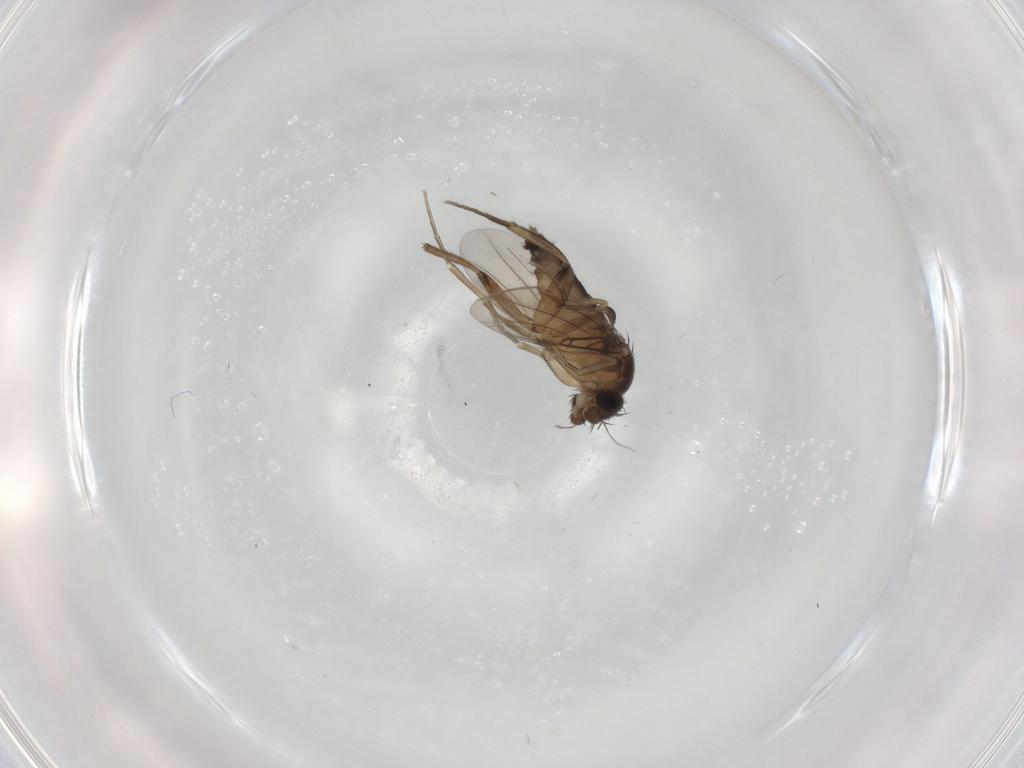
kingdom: Animalia
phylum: Arthropoda
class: Insecta
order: Diptera
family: Phoridae
